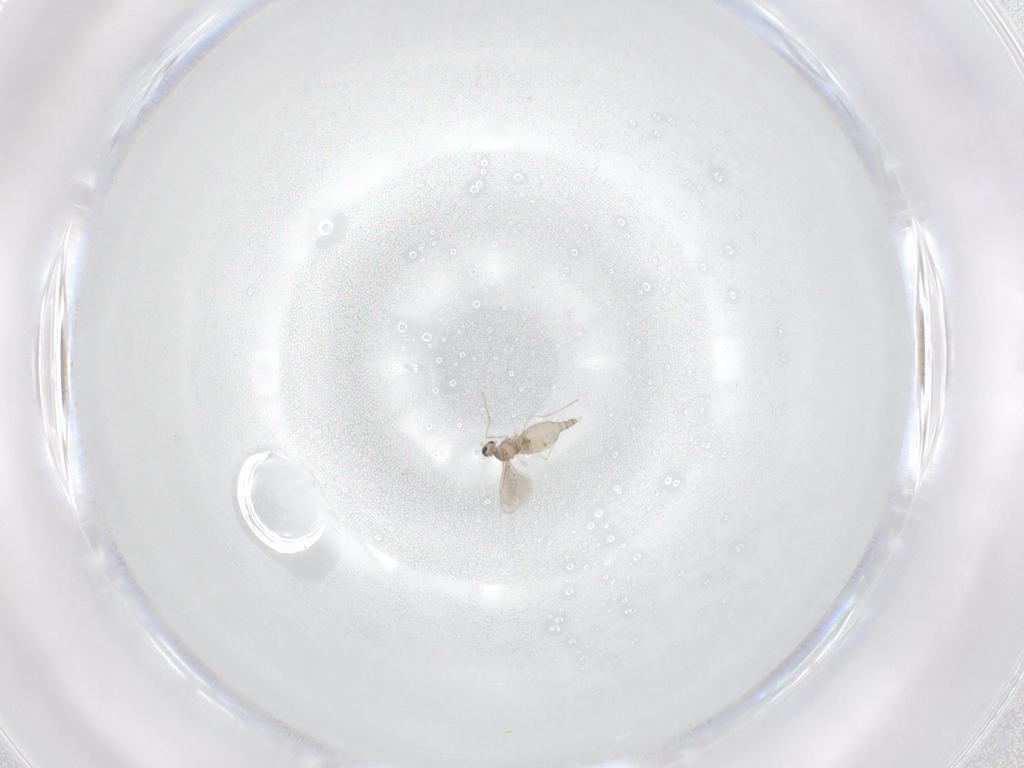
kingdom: Animalia
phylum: Arthropoda
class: Insecta
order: Diptera
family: Cecidomyiidae
